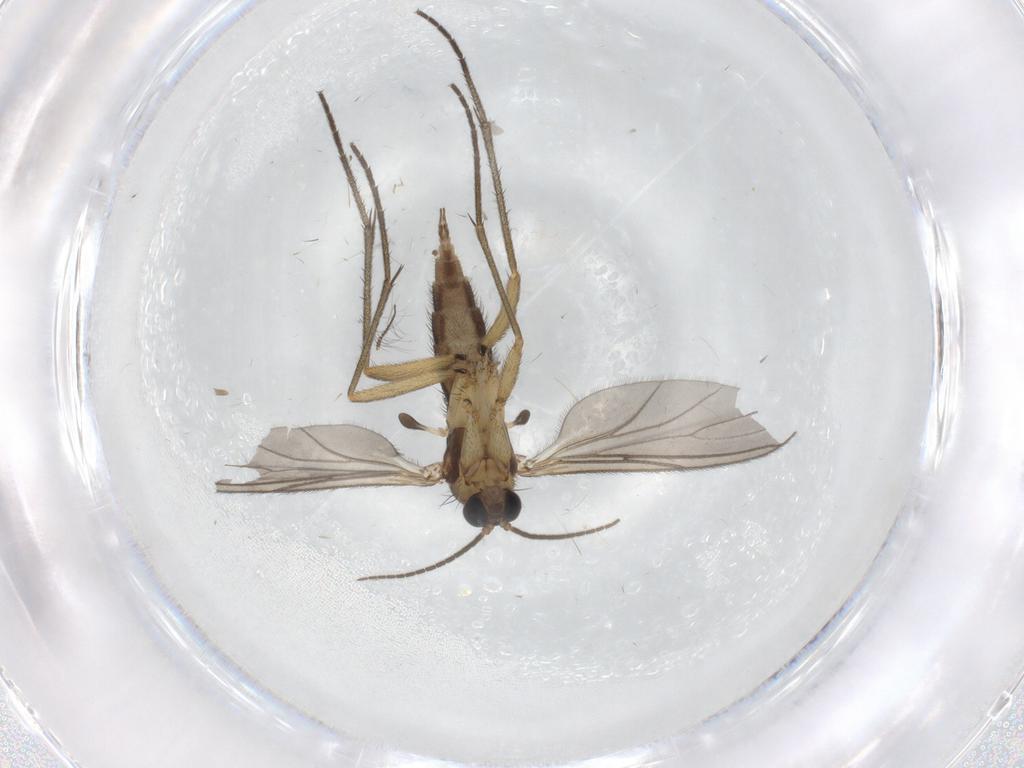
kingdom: Animalia
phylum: Arthropoda
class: Insecta
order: Diptera
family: Sciaridae
